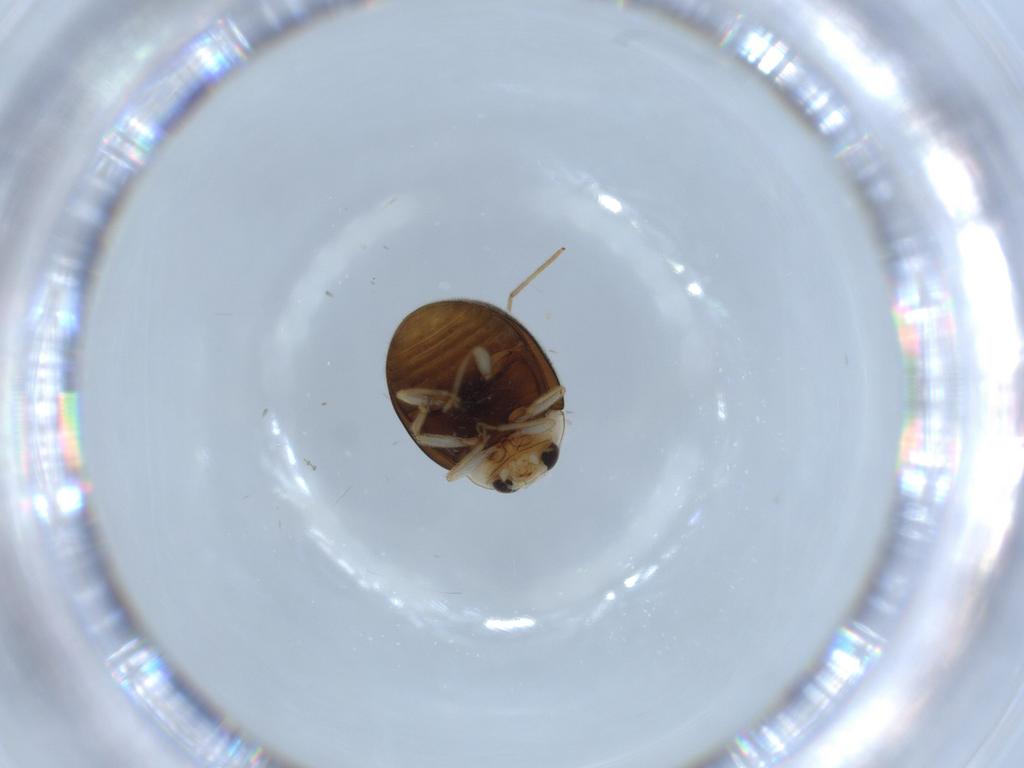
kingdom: Animalia
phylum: Arthropoda
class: Insecta
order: Coleoptera
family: Coccinellidae
